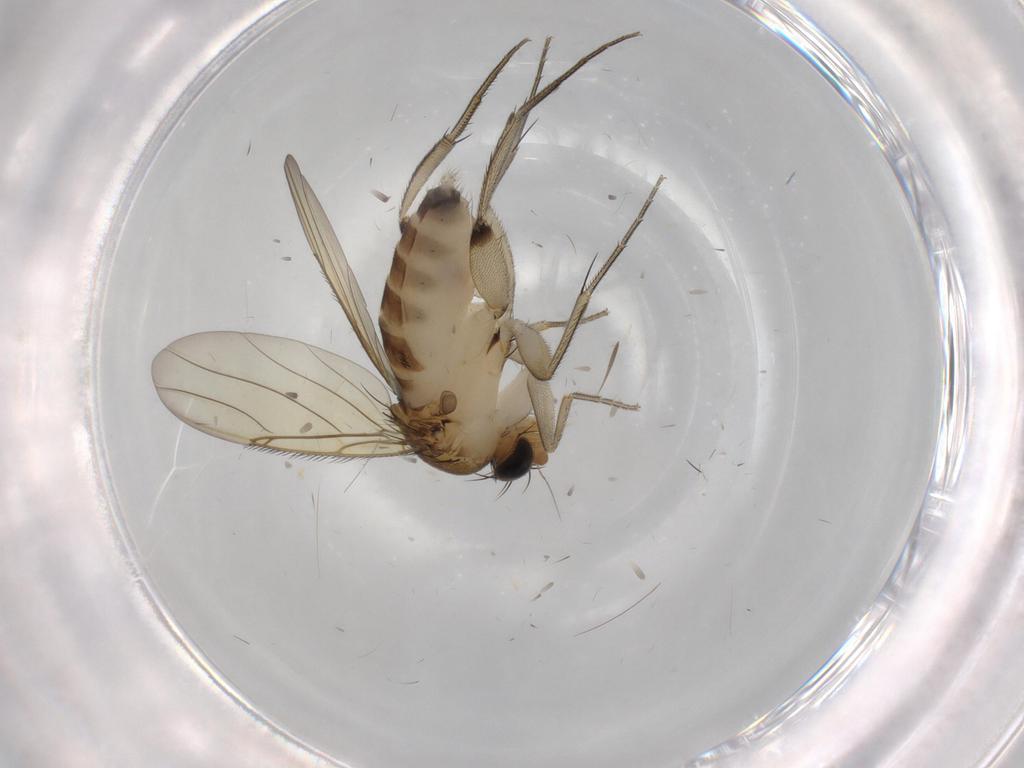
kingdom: Animalia
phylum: Arthropoda
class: Insecta
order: Diptera
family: Phoridae
